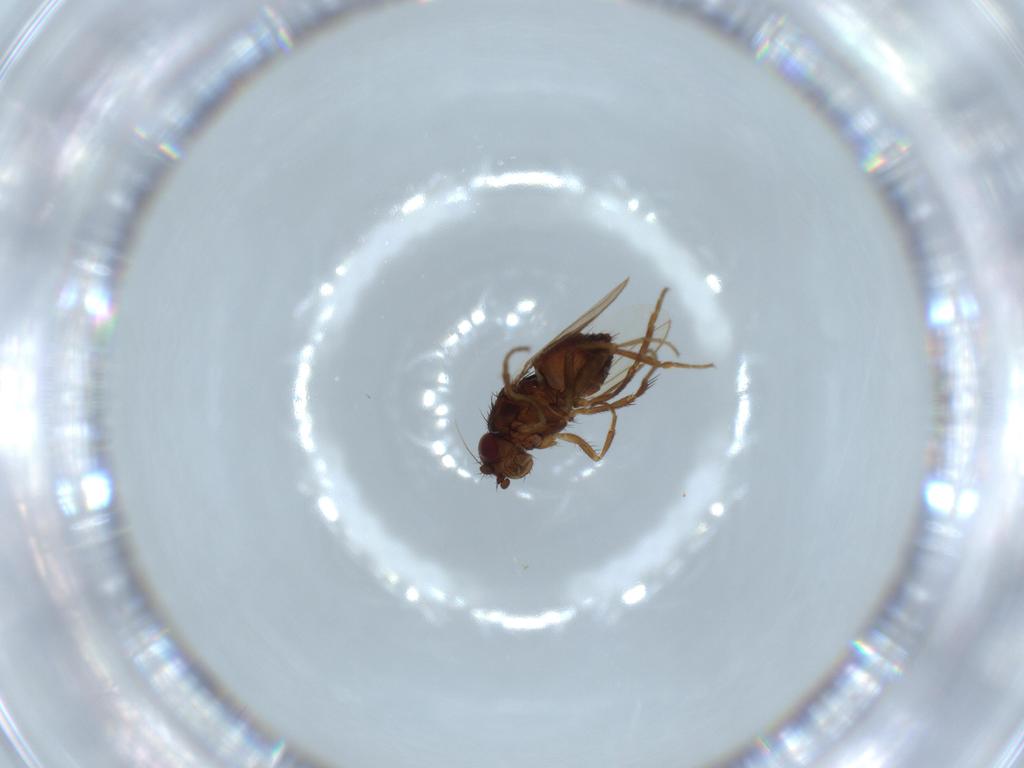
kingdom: Animalia
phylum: Arthropoda
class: Insecta
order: Diptera
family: Sphaeroceridae
